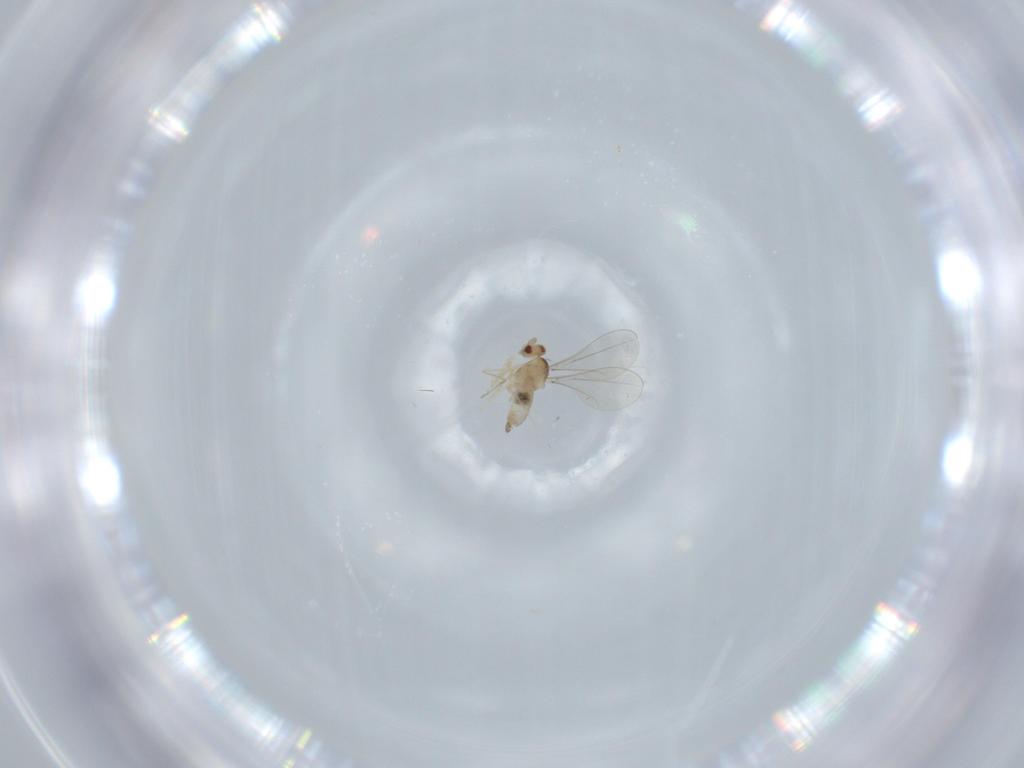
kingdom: Animalia
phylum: Arthropoda
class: Insecta
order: Diptera
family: Cecidomyiidae
